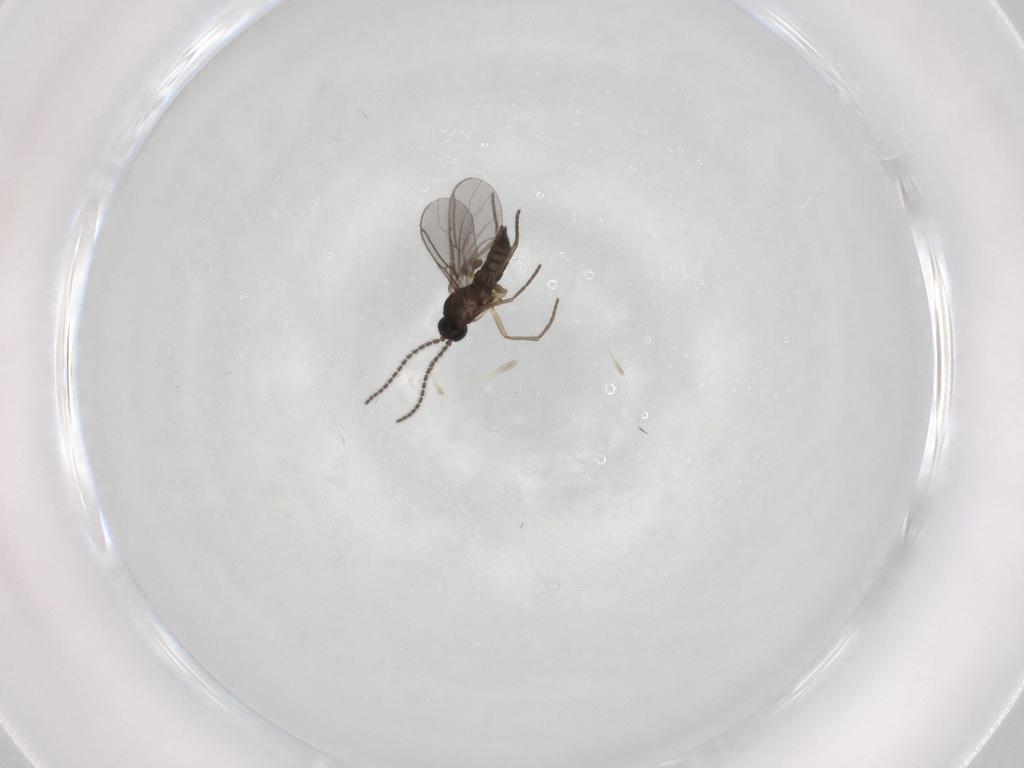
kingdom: Animalia
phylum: Arthropoda
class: Insecta
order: Diptera
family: Sciaridae
